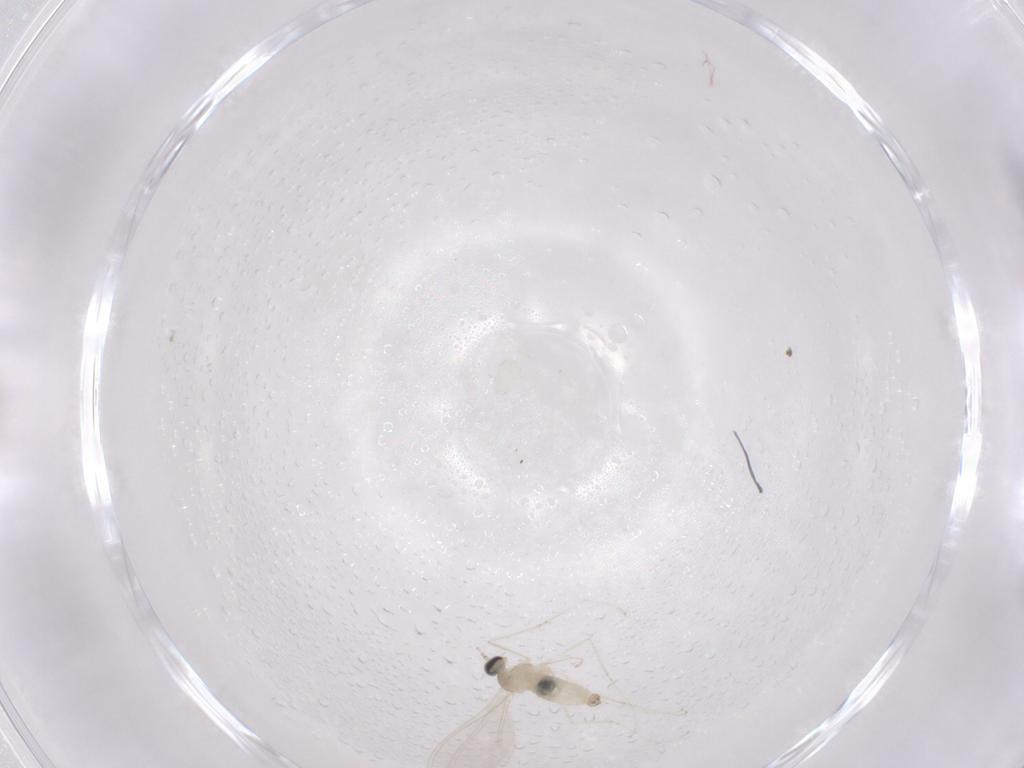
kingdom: Animalia
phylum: Arthropoda
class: Insecta
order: Diptera
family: Cecidomyiidae
